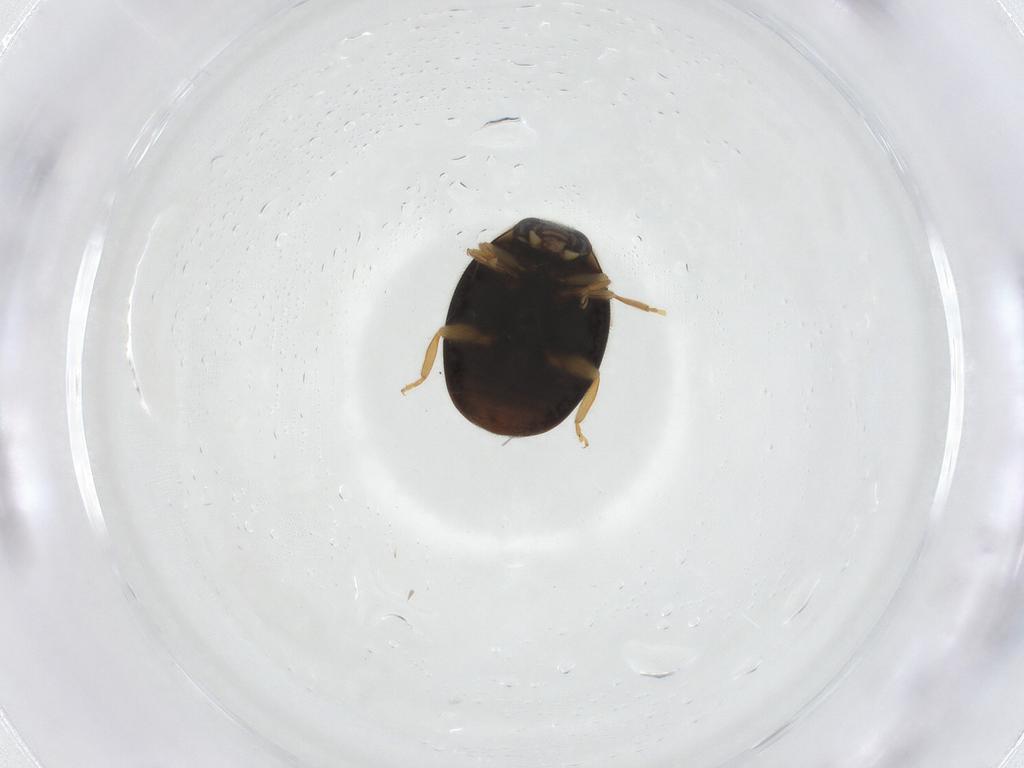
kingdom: Animalia
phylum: Arthropoda
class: Insecta
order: Coleoptera
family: Coccinellidae
